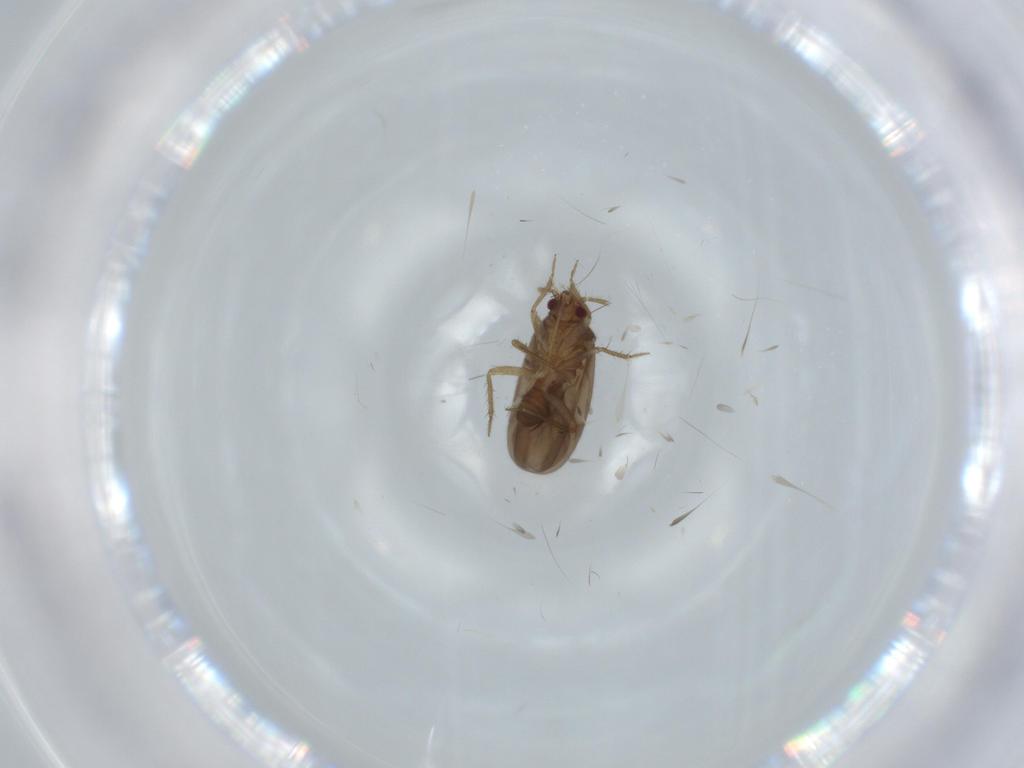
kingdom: Animalia
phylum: Arthropoda
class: Insecta
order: Hemiptera
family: Ceratocombidae
